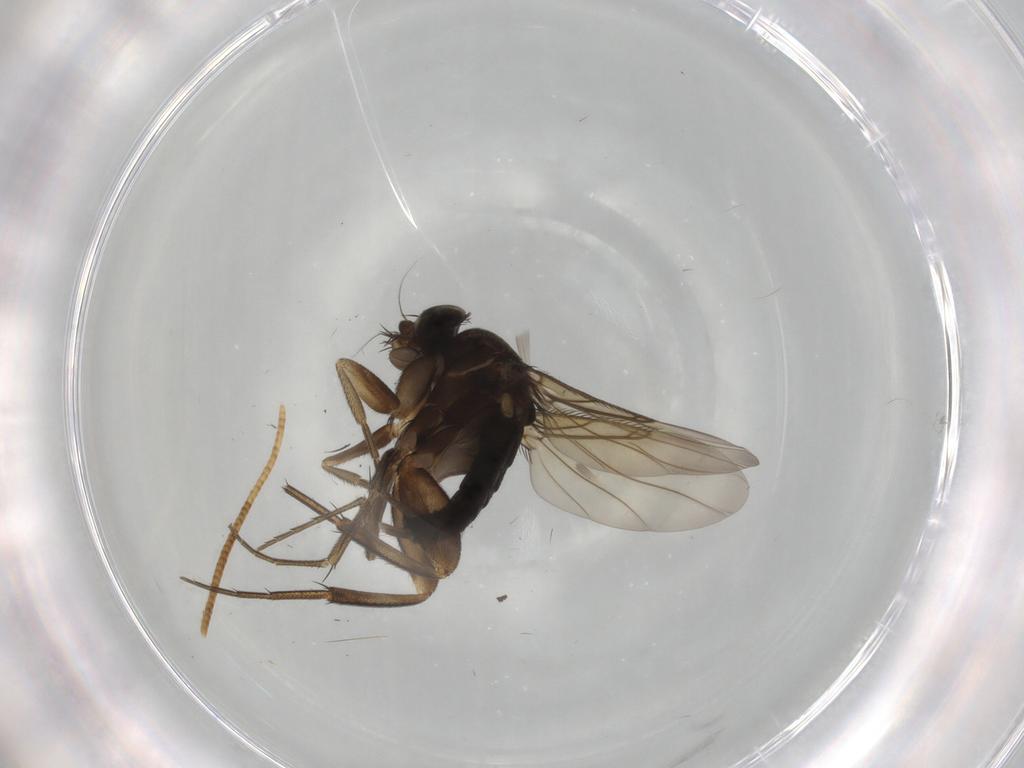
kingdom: Animalia
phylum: Arthropoda
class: Insecta
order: Diptera
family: Phoridae
